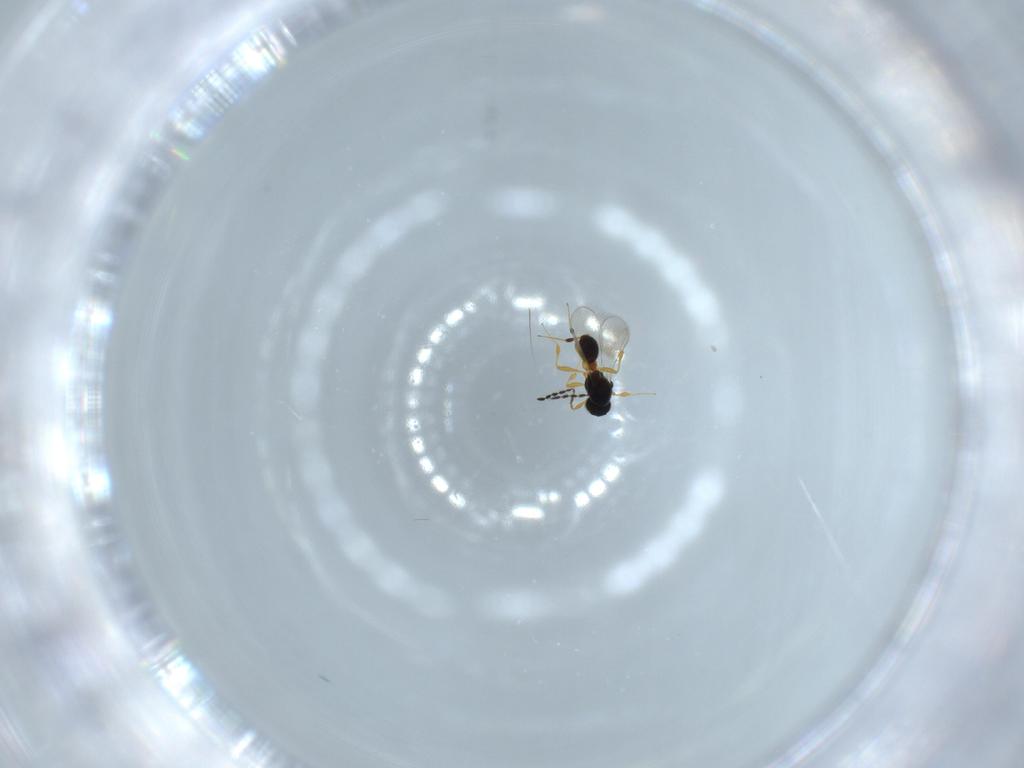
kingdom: Animalia
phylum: Arthropoda
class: Insecta
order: Hymenoptera
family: Platygastridae
